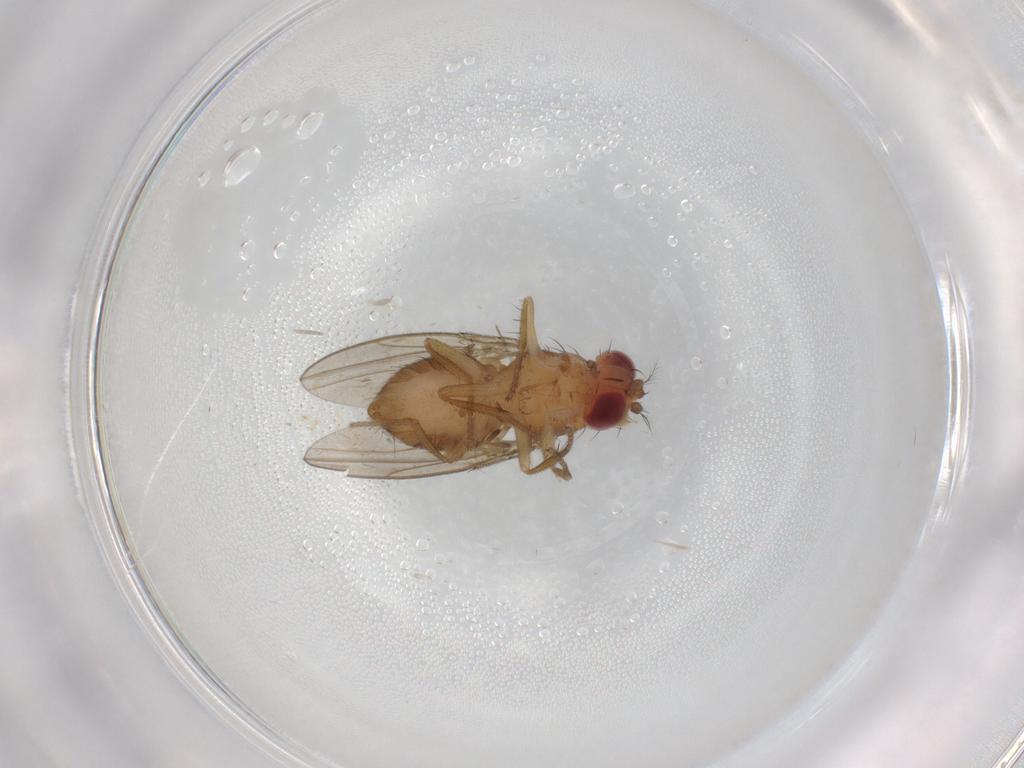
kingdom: Animalia
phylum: Arthropoda
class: Insecta
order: Diptera
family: Drosophilidae
